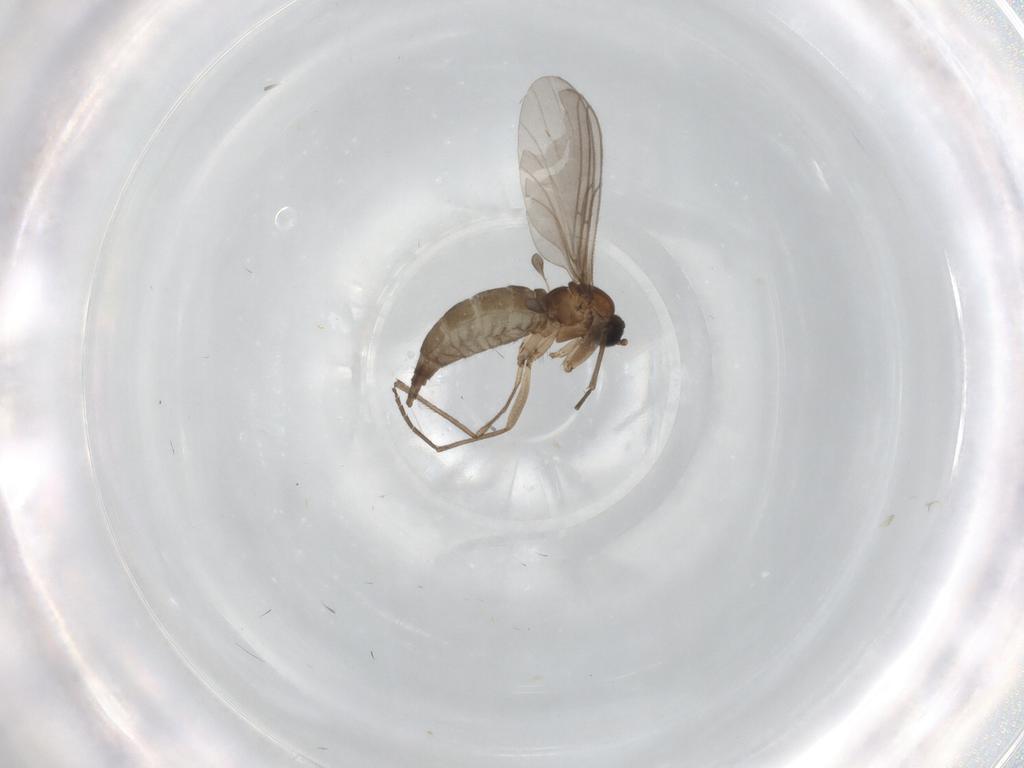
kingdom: Animalia
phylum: Arthropoda
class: Insecta
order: Diptera
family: Sciaridae
